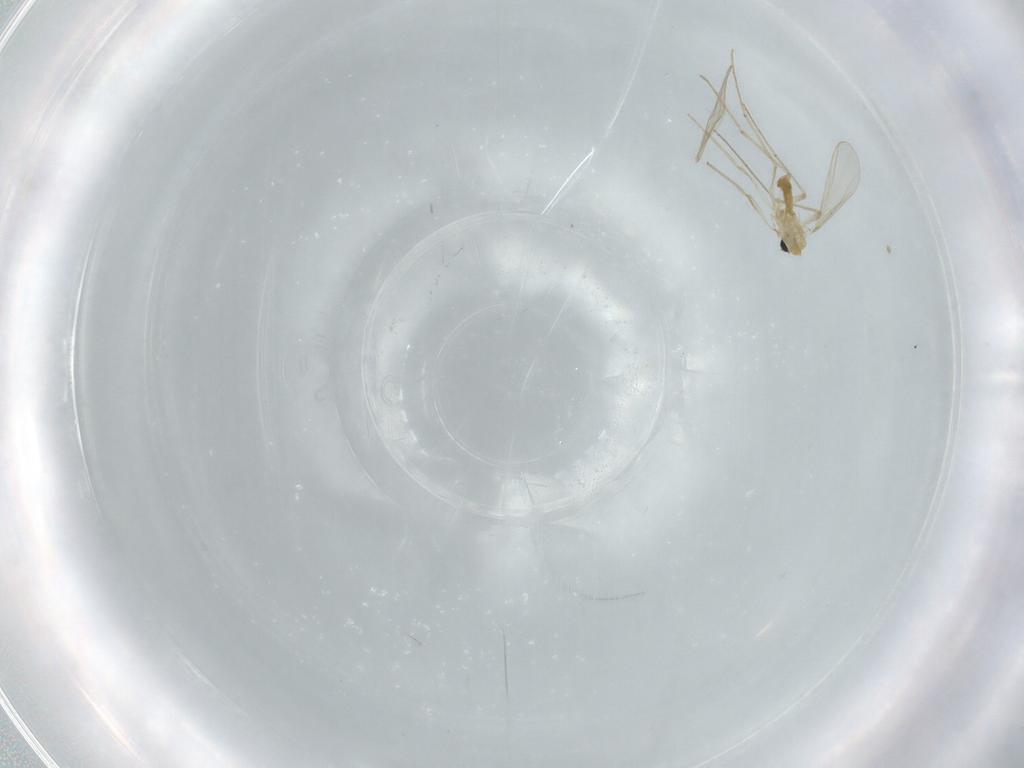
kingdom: Animalia
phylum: Arthropoda
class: Insecta
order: Diptera
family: Chironomidae
